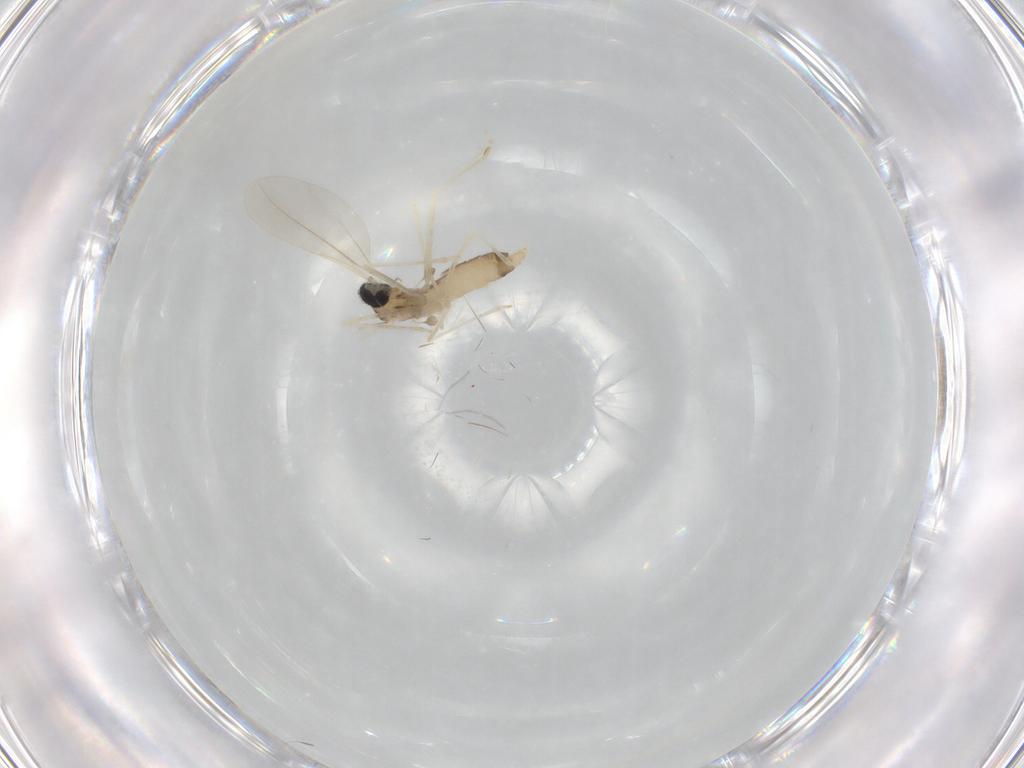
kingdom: Animalia
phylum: Arthropoda
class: Insecta
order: Diptera
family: Cecidomyiidae
